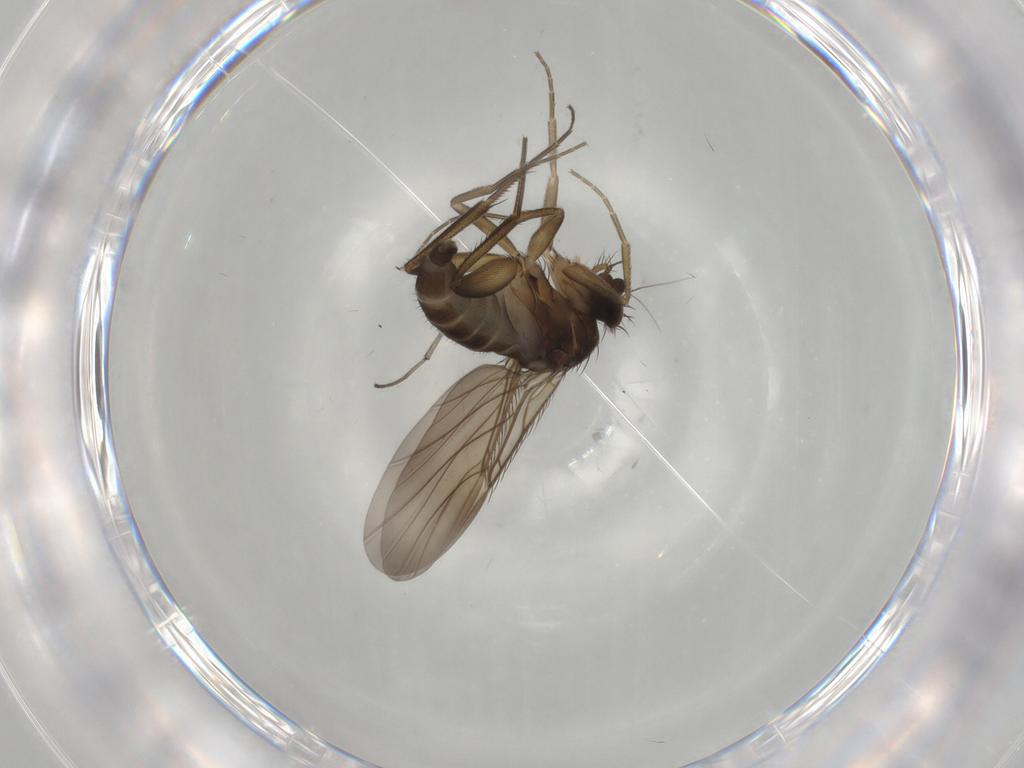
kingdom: Animalia
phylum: Arthropoda
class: Insecta
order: Diptera
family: Phoridae
